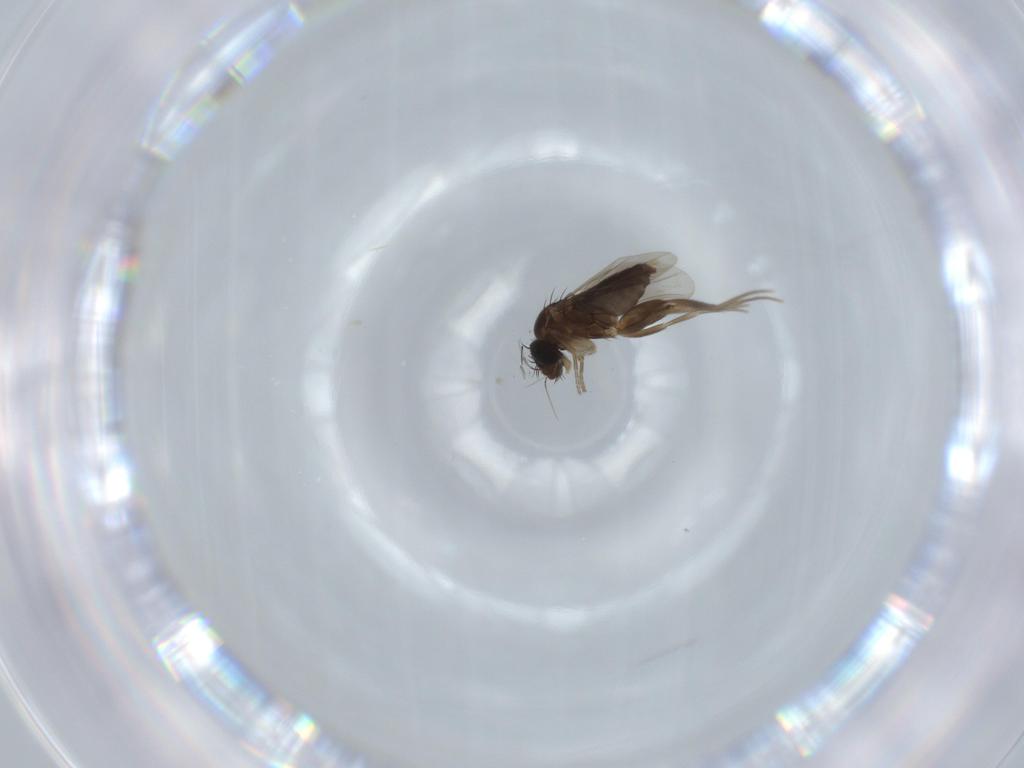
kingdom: Animalia
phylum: Arthropoda
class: Insecta
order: Diptera
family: Phoridae
